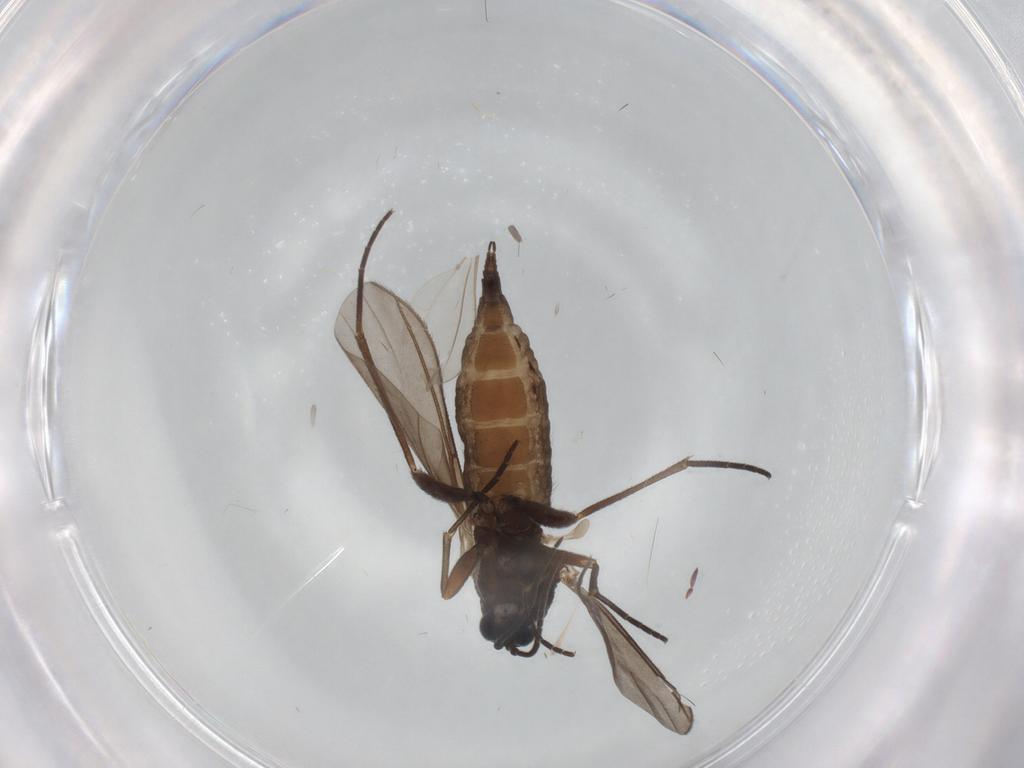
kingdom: Animalia
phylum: Arthropoda
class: Insecta
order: Diptera
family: Sciaridae
